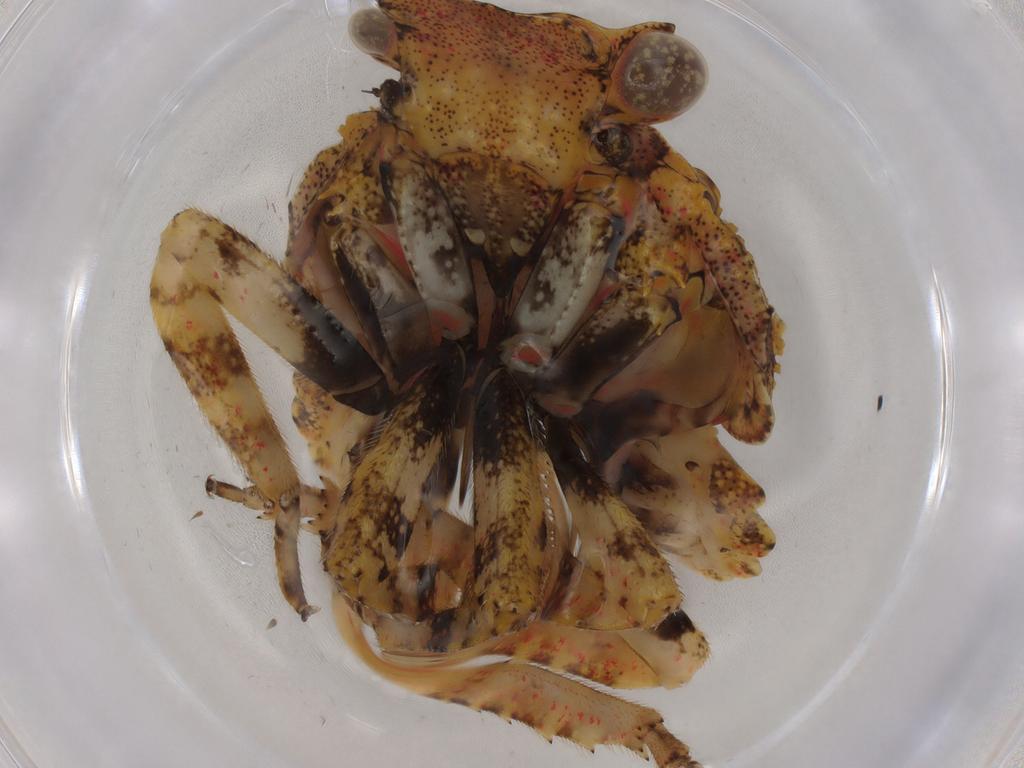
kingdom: Animalia
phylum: Arthropoda
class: Insecta
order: Hemiptera
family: Fulgoridae
